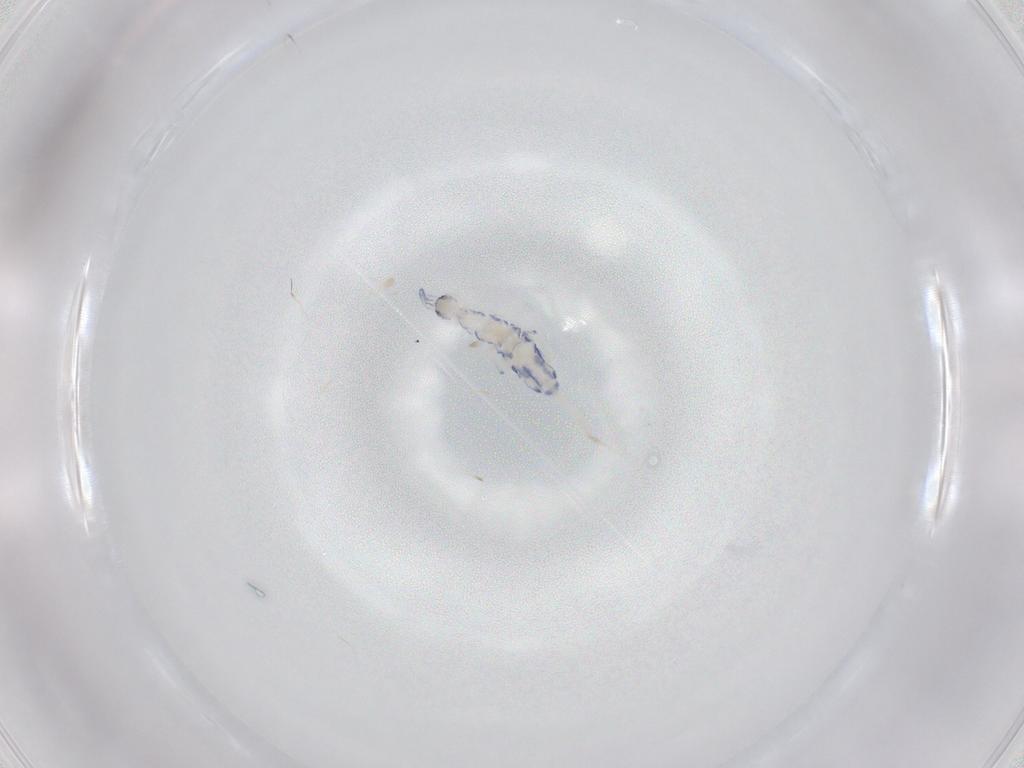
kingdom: Animalia
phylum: Arthropoda
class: Collembola
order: Entomobryomorpha
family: Entomobryidae
